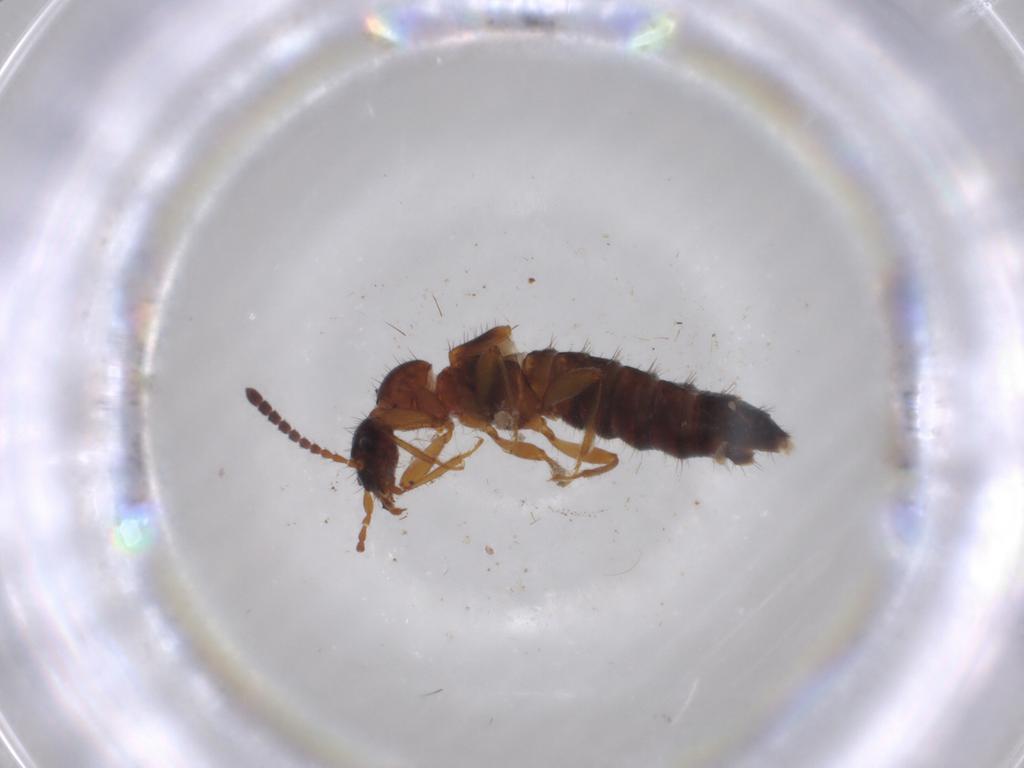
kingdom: Animalia
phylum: Arthropoda
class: Insecta
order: Coleoptera
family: Staphylinidae
